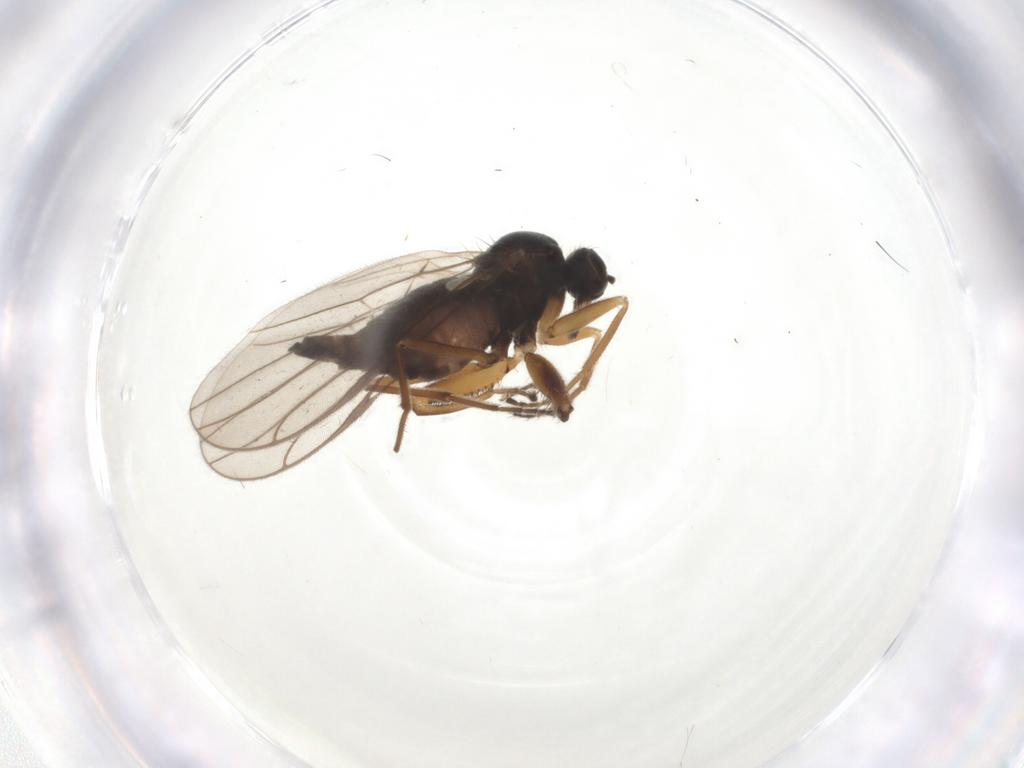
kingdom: Animalia
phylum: Arthropoda
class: Insecta
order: Diptera
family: Hybotidae
